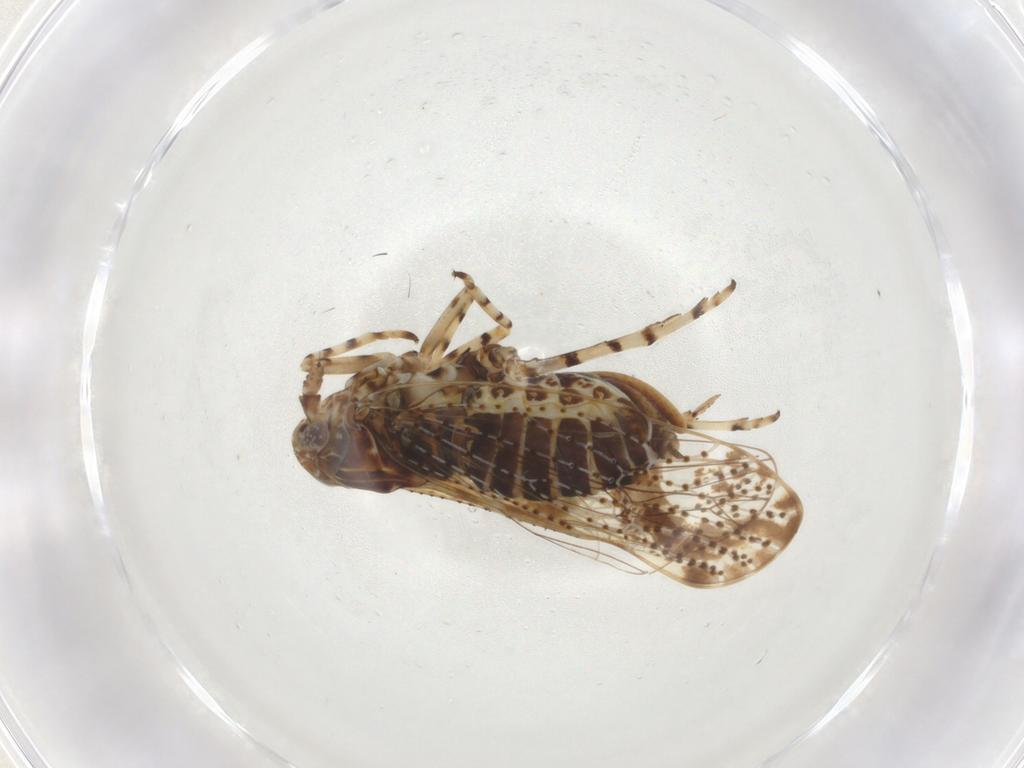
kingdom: Animalia
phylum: Arthropoda
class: Insecta
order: Hemiptera
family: Delphacidae
